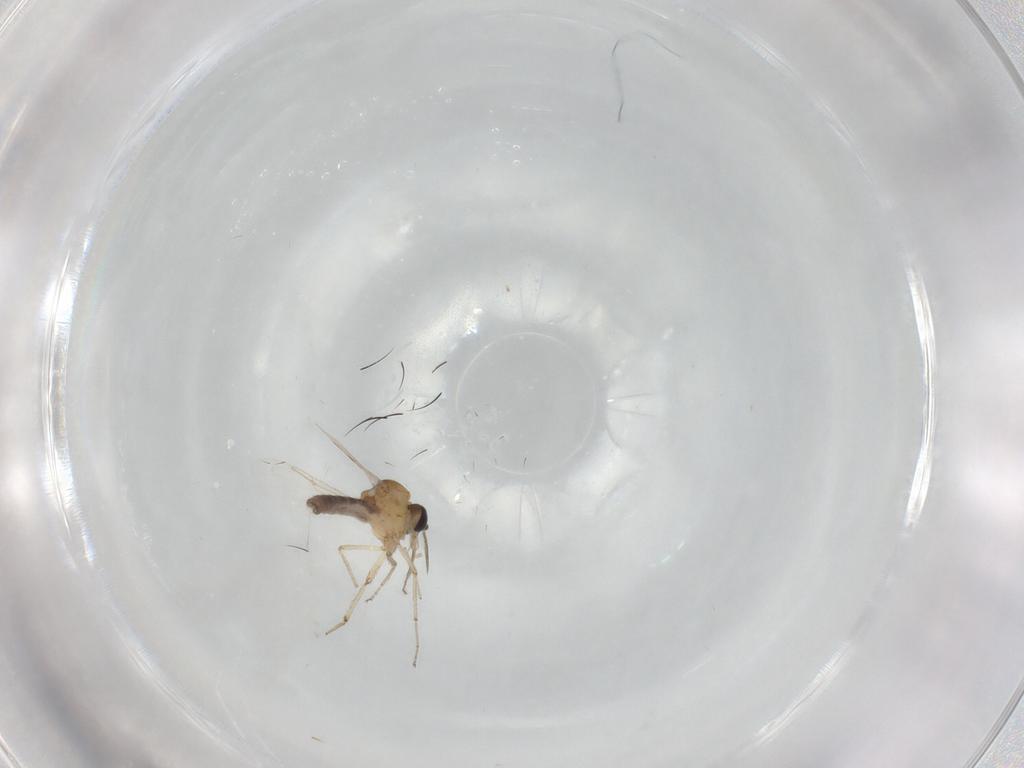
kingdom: Animalia
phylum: Arthropoda
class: Insecta
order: Diptera
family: Ceratopogonidae
